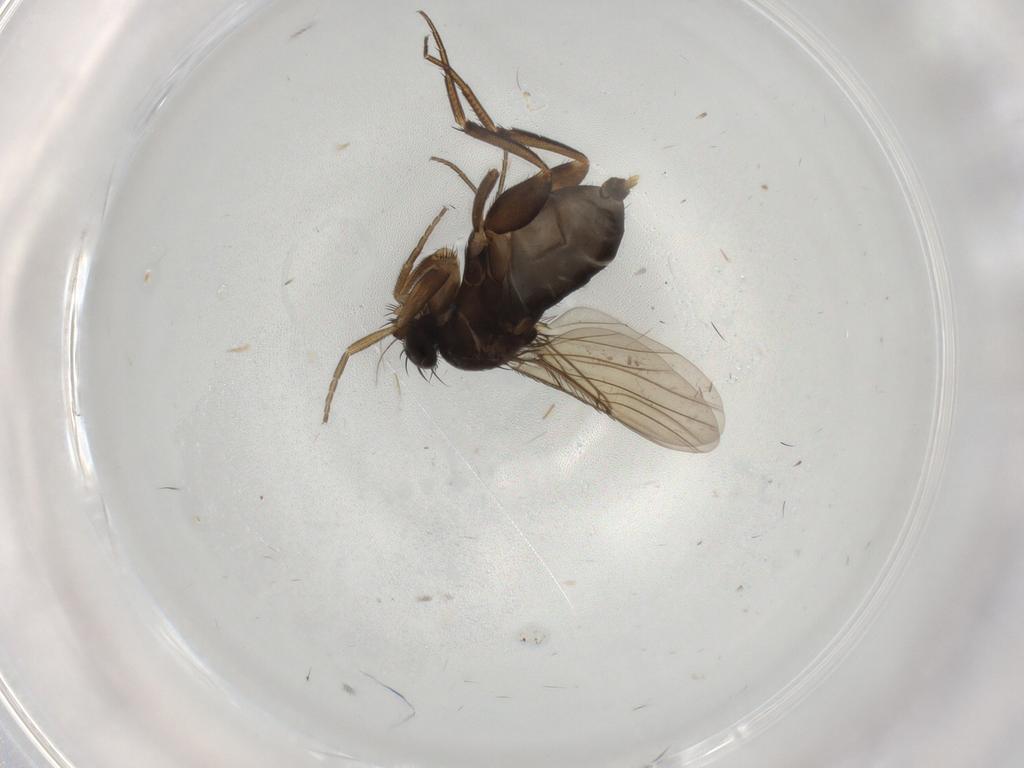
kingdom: Animalia
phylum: Arthropoda
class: Insecta
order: Diptera
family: Phoridae
